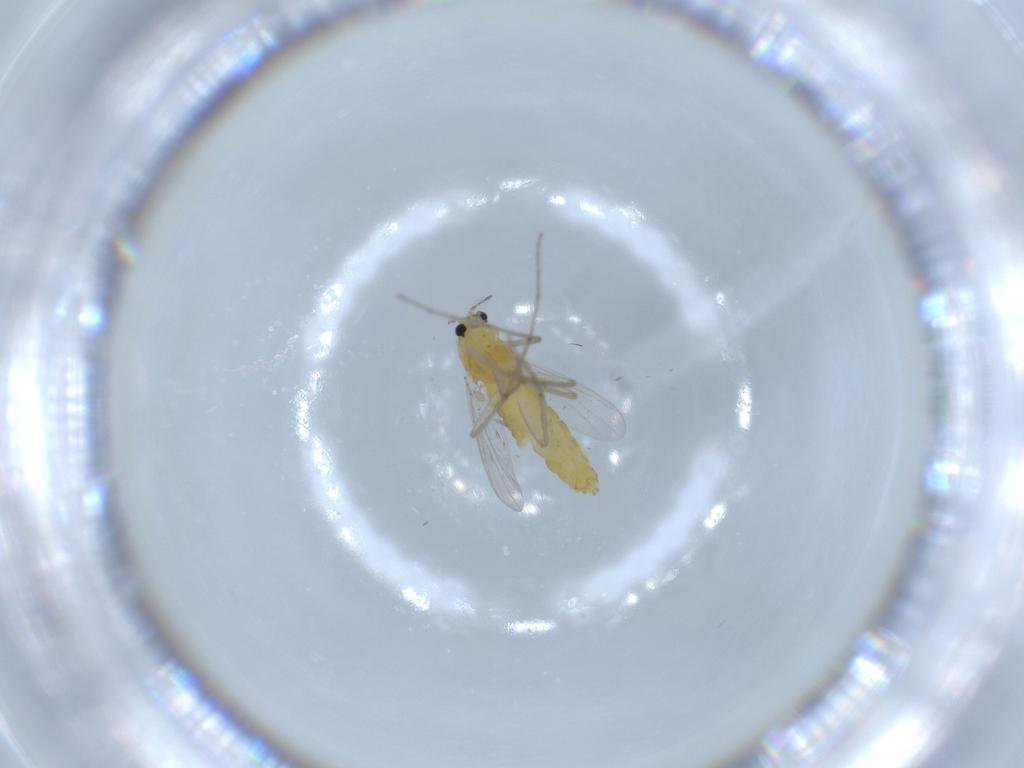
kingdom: Animalia
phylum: Arthropoda
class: Insecta
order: Diptera
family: Chironomidae
